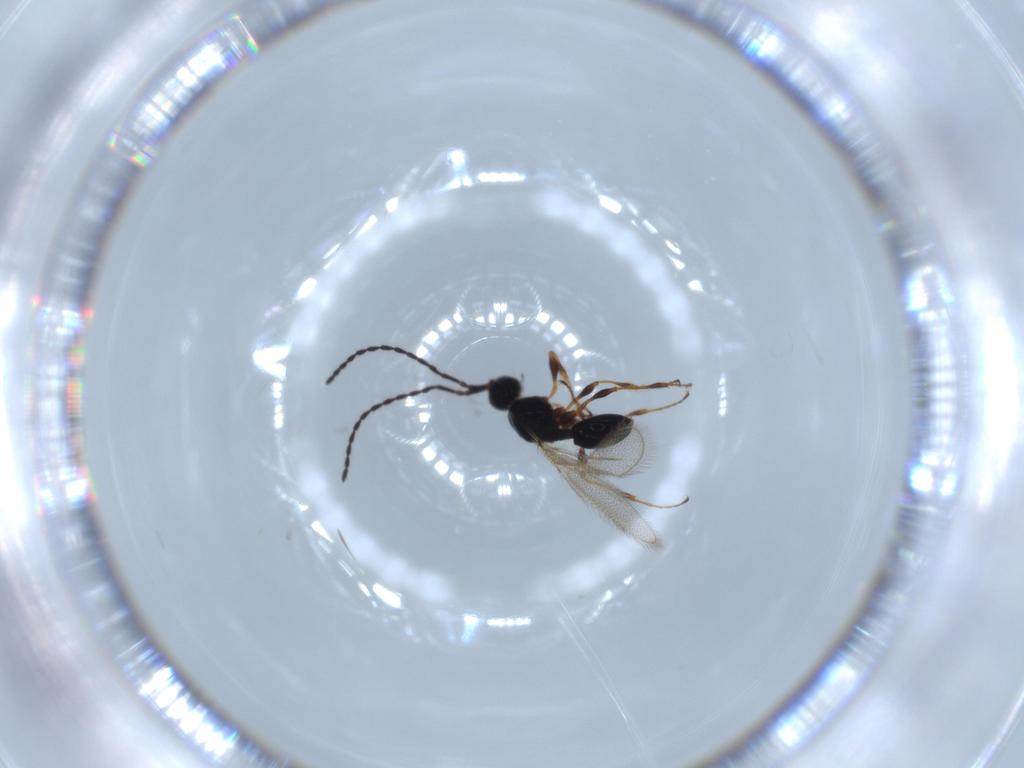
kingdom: Animalia
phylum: Arthropoda
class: Insecta
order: Hymenoptera
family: Diapriidae
